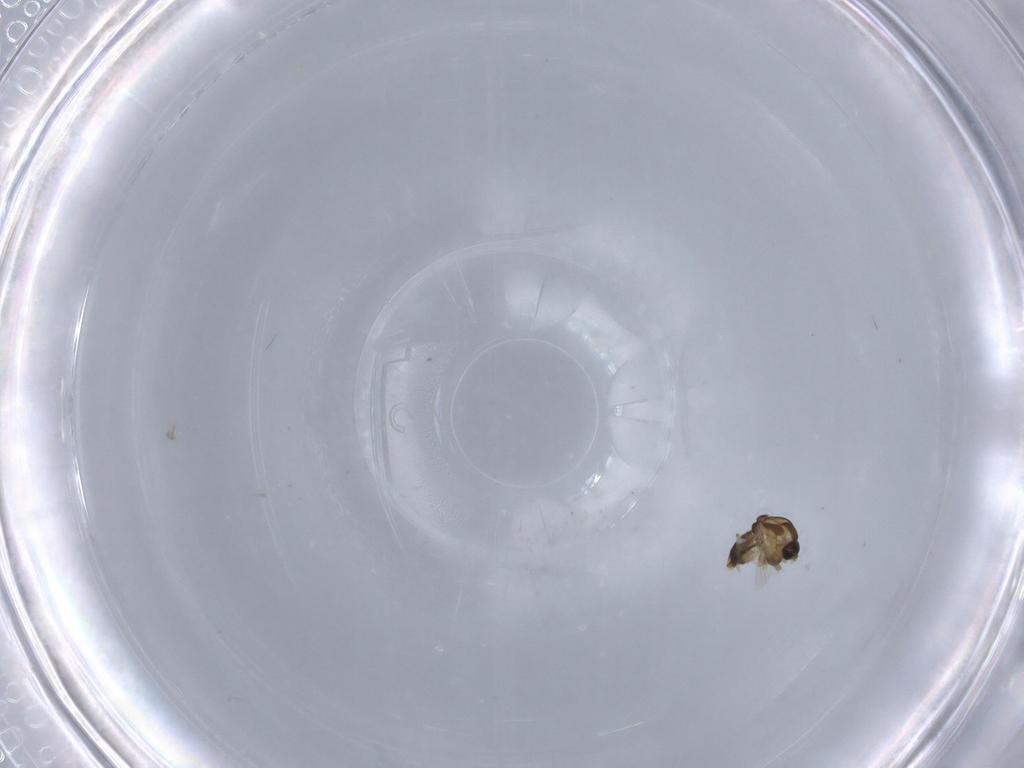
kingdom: Animalia
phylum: Arthropoda
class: Insecta
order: Diptera
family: Chironomidae
